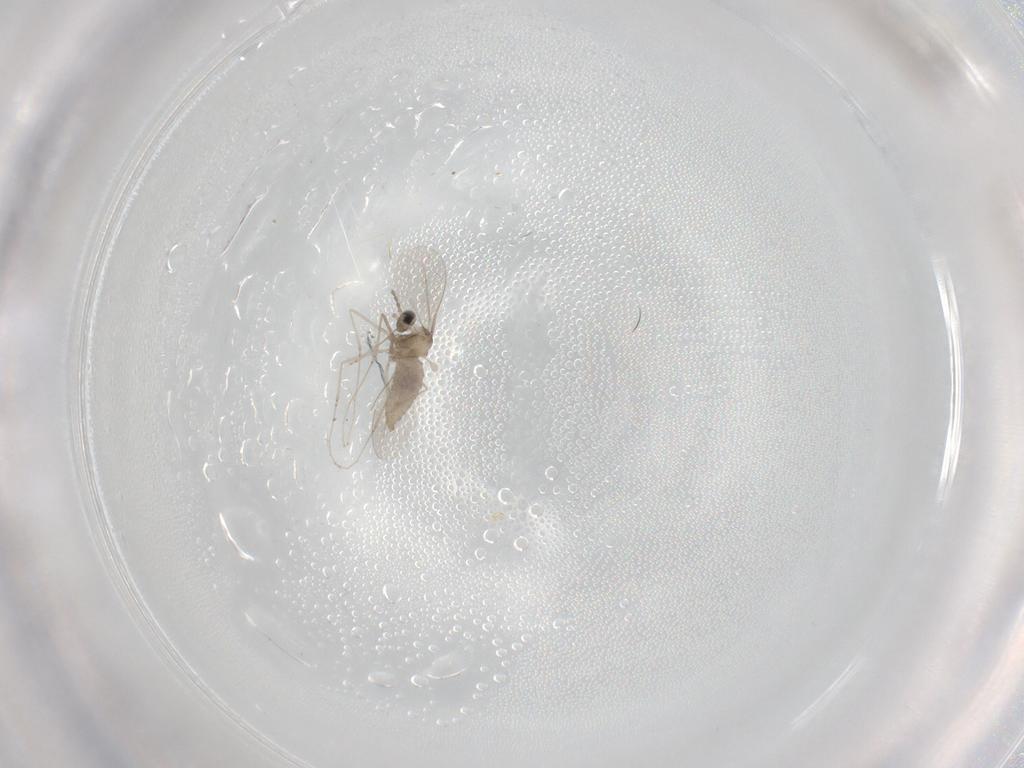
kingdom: Animalia
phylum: Arthropoda
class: Insecta
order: Diptera
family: Cecidomyiidae
